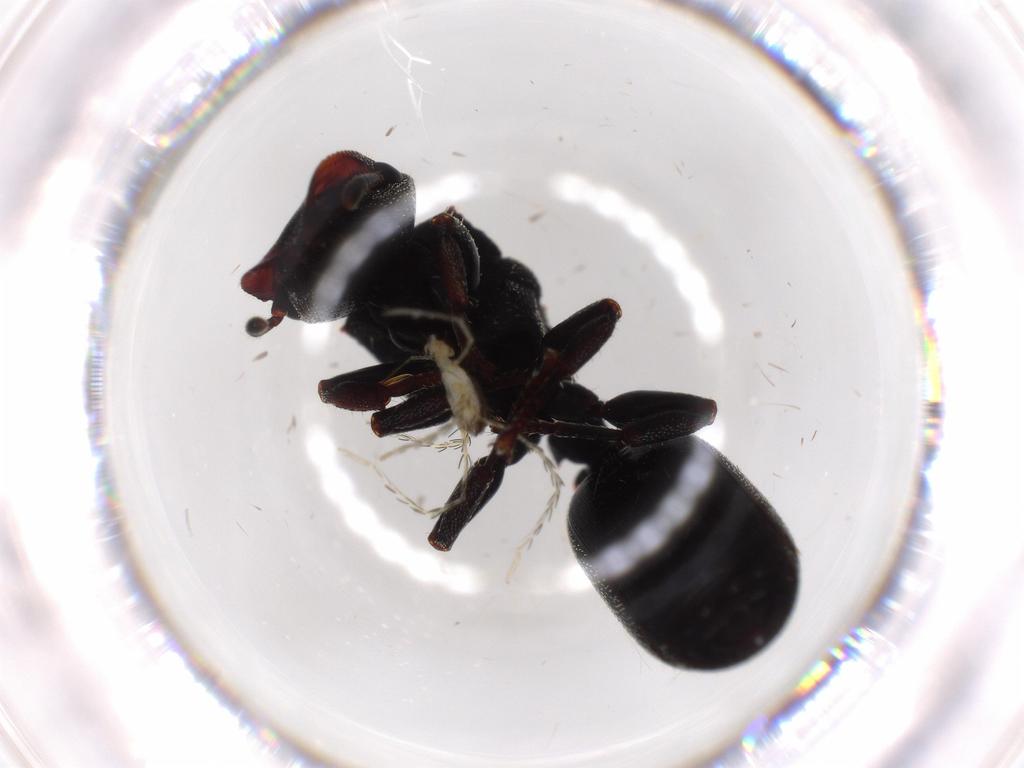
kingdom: Animalia
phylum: Arthropoda
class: Arachnida
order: Trombidiformes
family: Erythraeidae
